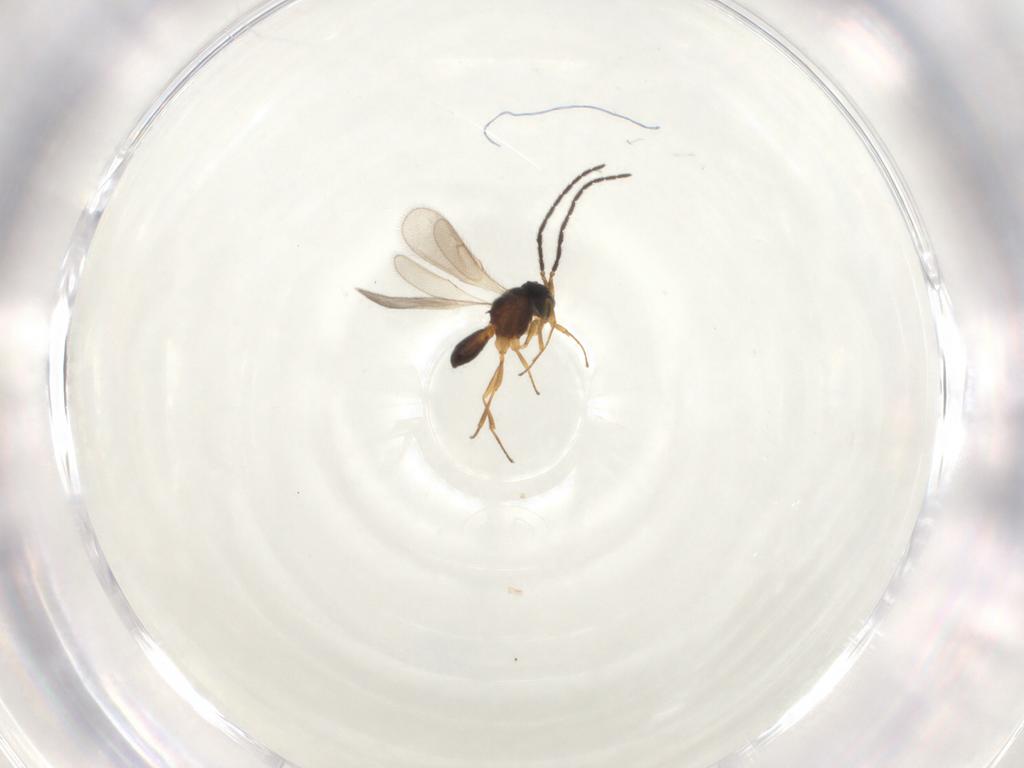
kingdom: Animalia
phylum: Arthropoda
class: Insecta
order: Hymenoptera
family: Scelionidae
